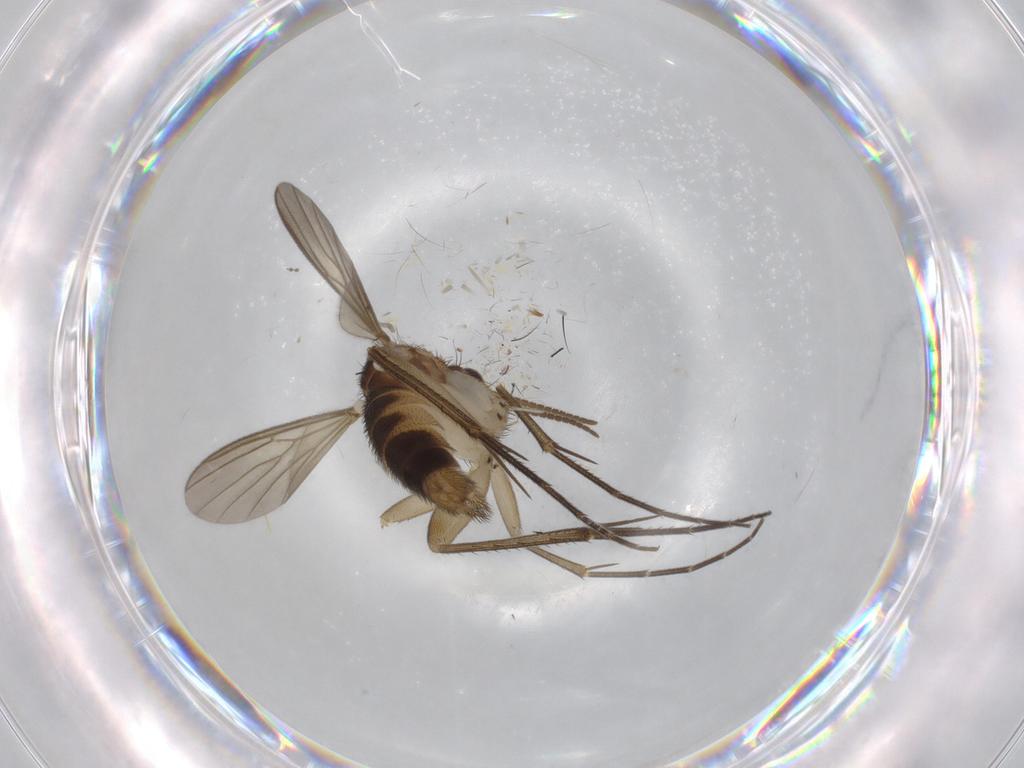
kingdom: Animalia
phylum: Arthropoda
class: Insecta
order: Diptera
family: Mycetophilidae
